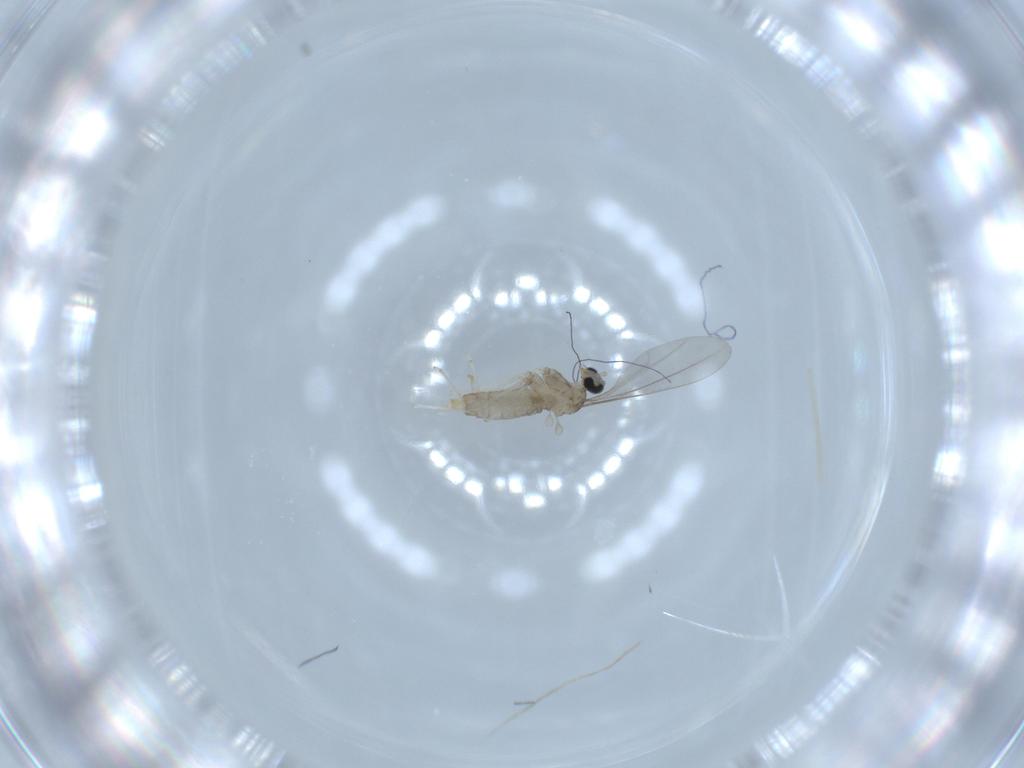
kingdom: Animalia
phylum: Arthropoda
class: Insecta
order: Diptera
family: Cecidomyiidae
